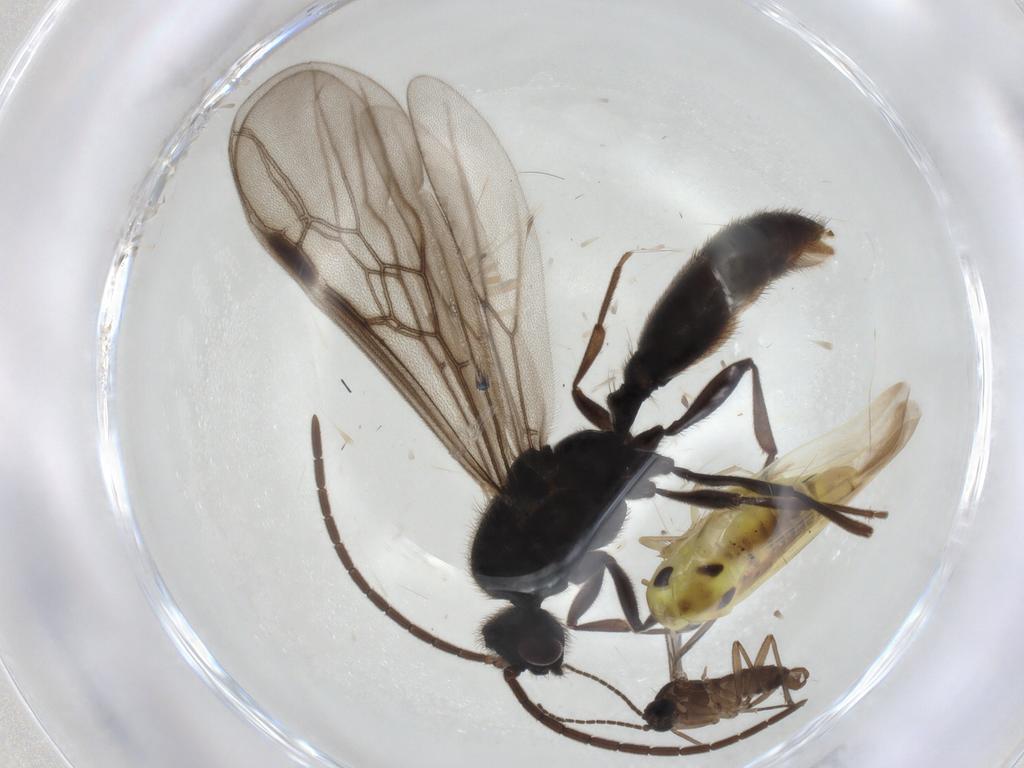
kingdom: Animalia
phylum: Arthropoda
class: Insecta
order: Hymenoptera
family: Formicidae
